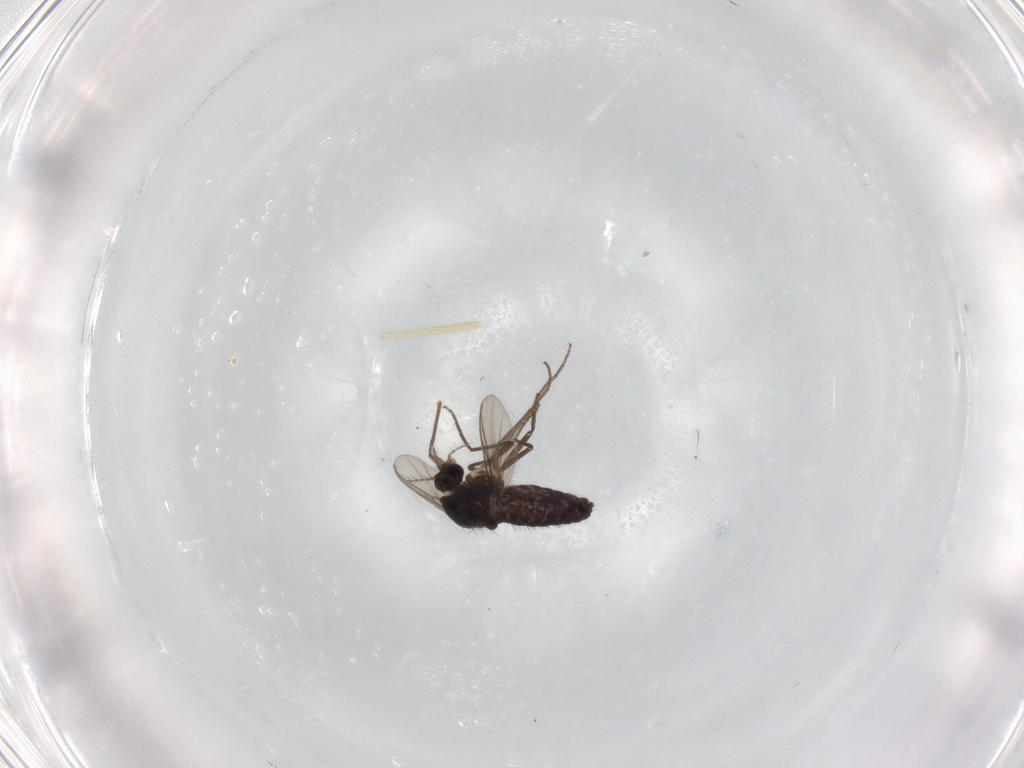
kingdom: Animalia
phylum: Arthropoda
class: Insecta
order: Diptera
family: Chironomidae
